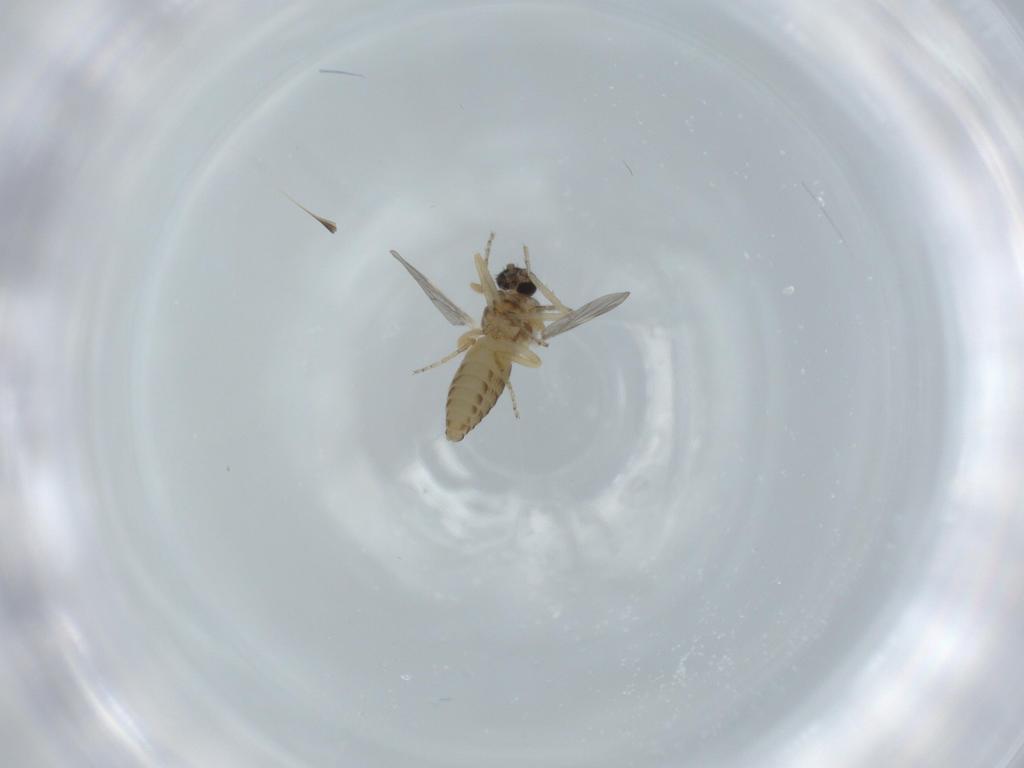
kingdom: Animalia
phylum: Arthropoda
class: Insecta
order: Diptera
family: Ceratopogonidae
